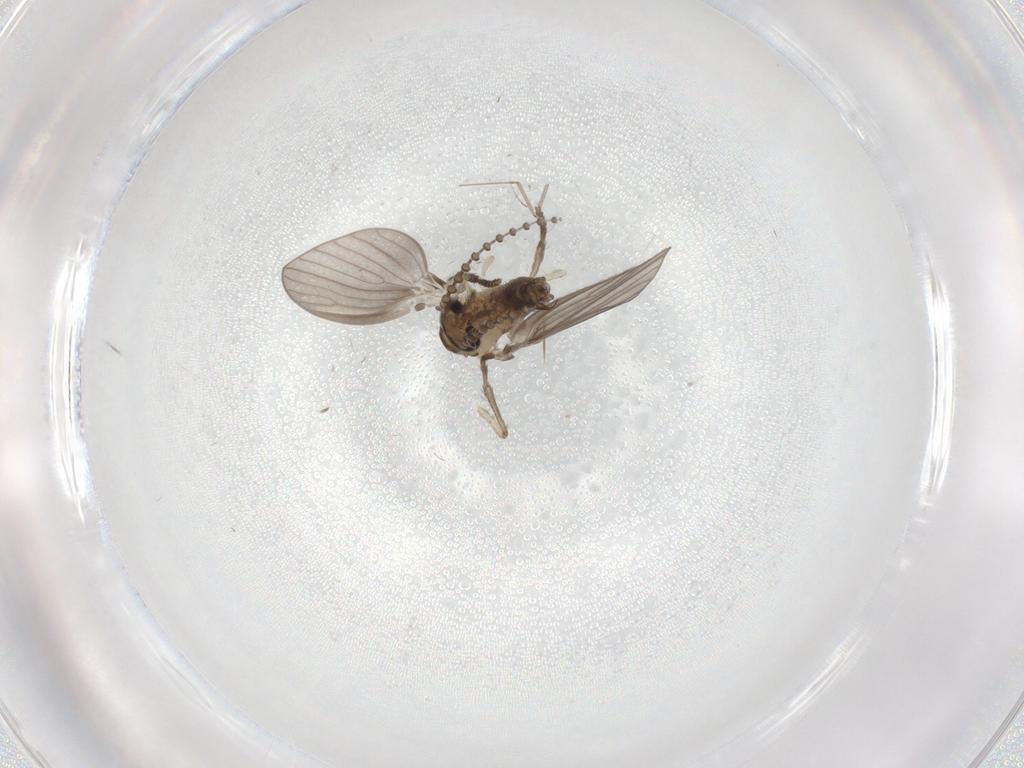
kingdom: Animalia
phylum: Arthropoda
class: Insecta
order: Diptera
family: Psychodidae
